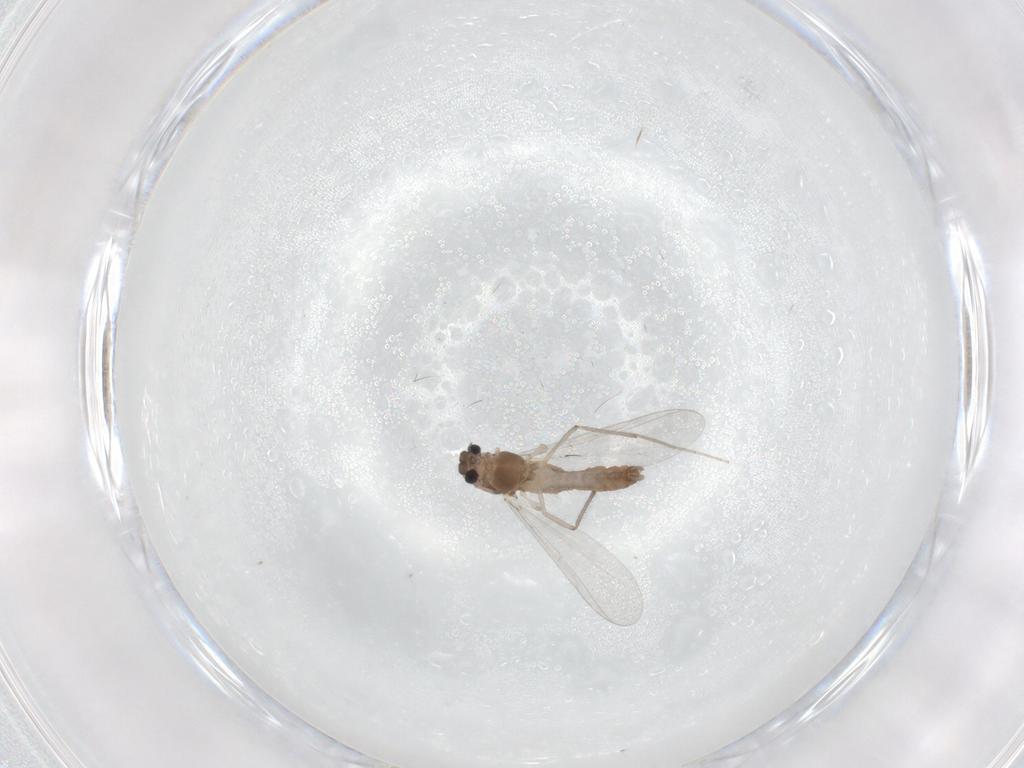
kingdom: Animalia
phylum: Arthropoda
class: Insecta
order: Diptera
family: Chironomidae
